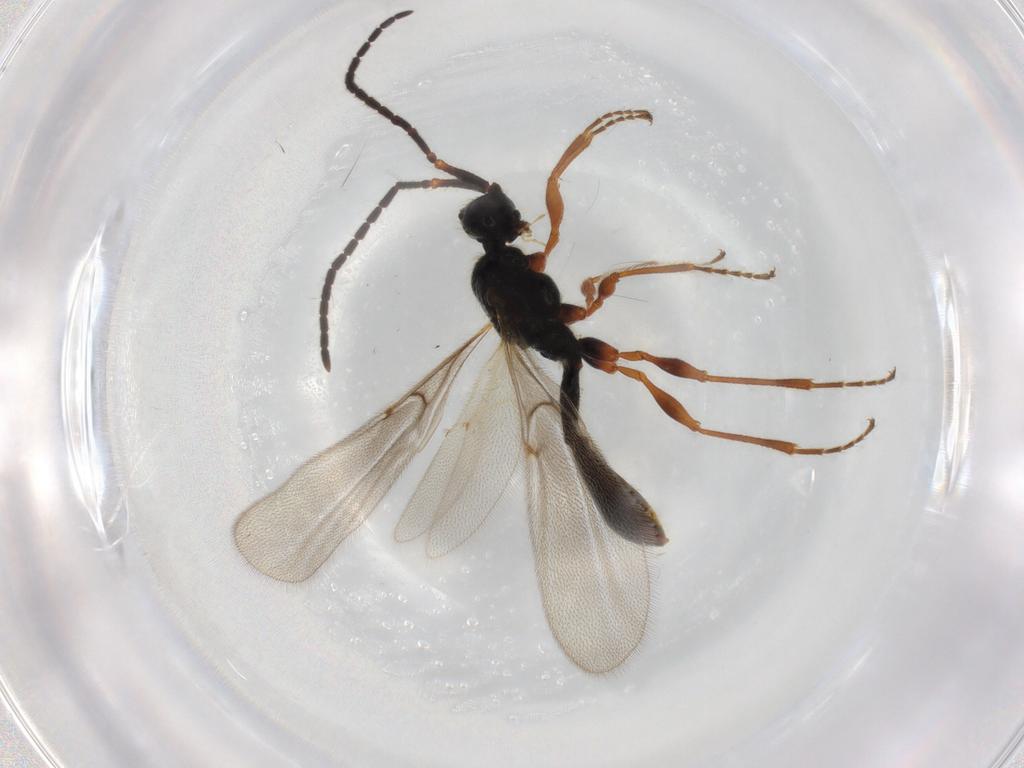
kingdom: Animalia
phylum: Arthropoda
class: Insecta
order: Hymenoptera
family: Diapriidae
